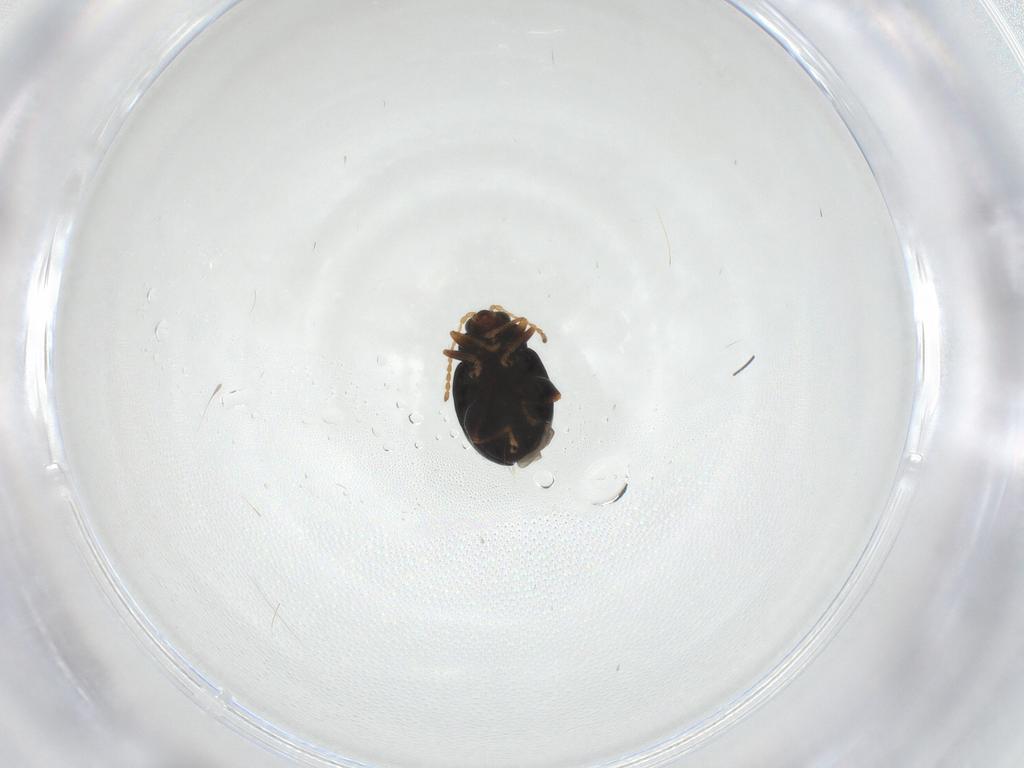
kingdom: Animalia
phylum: Arthropoda
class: Insecta
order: Coleoptera
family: Chrysomelidae
